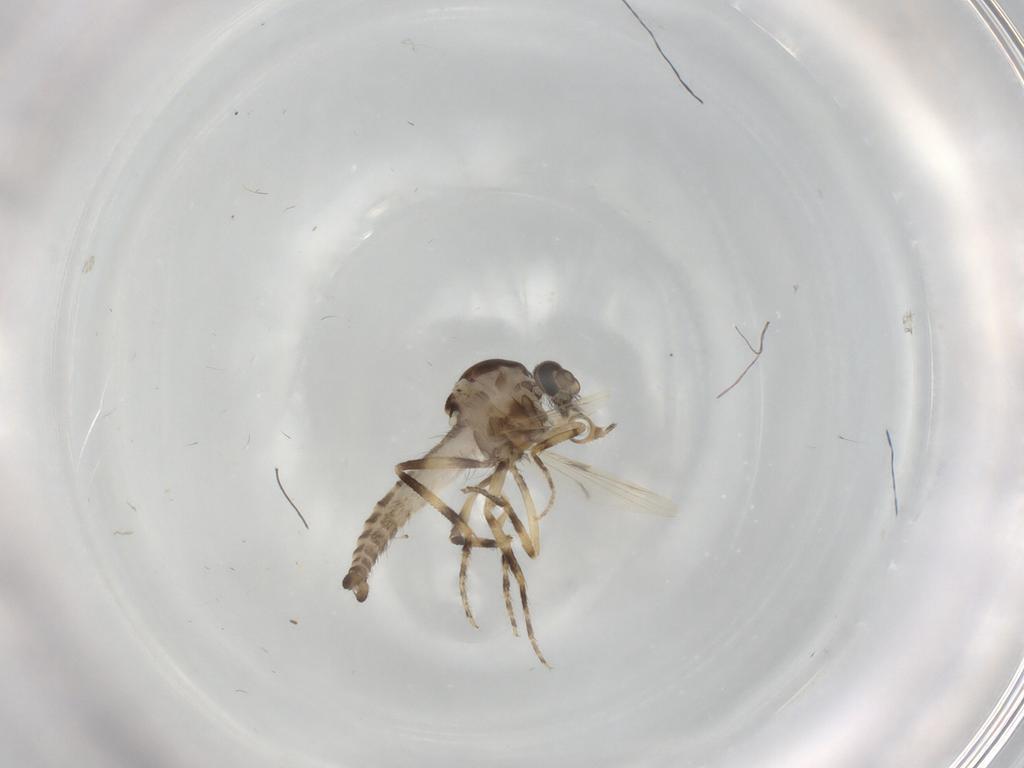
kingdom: Animalia
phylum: Arthropoda
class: Insecta
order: Diptera
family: Ceratopogonidae
